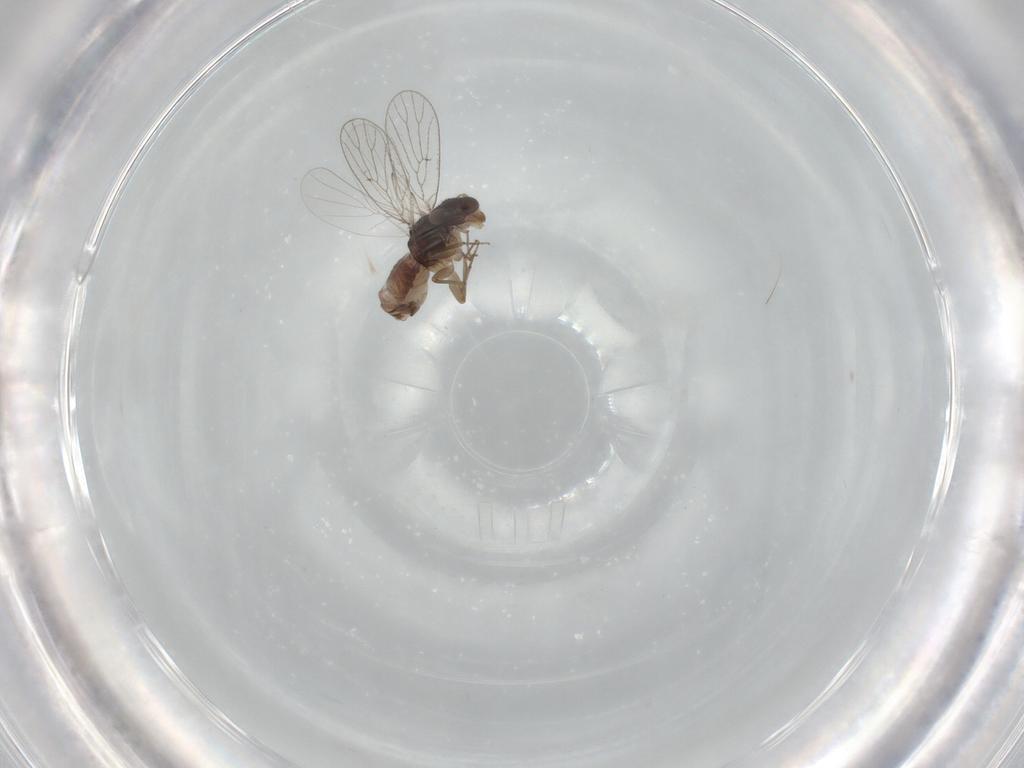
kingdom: Animalia
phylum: Arthropoda
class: Insecta
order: Psocodea
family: Psoquillidae
